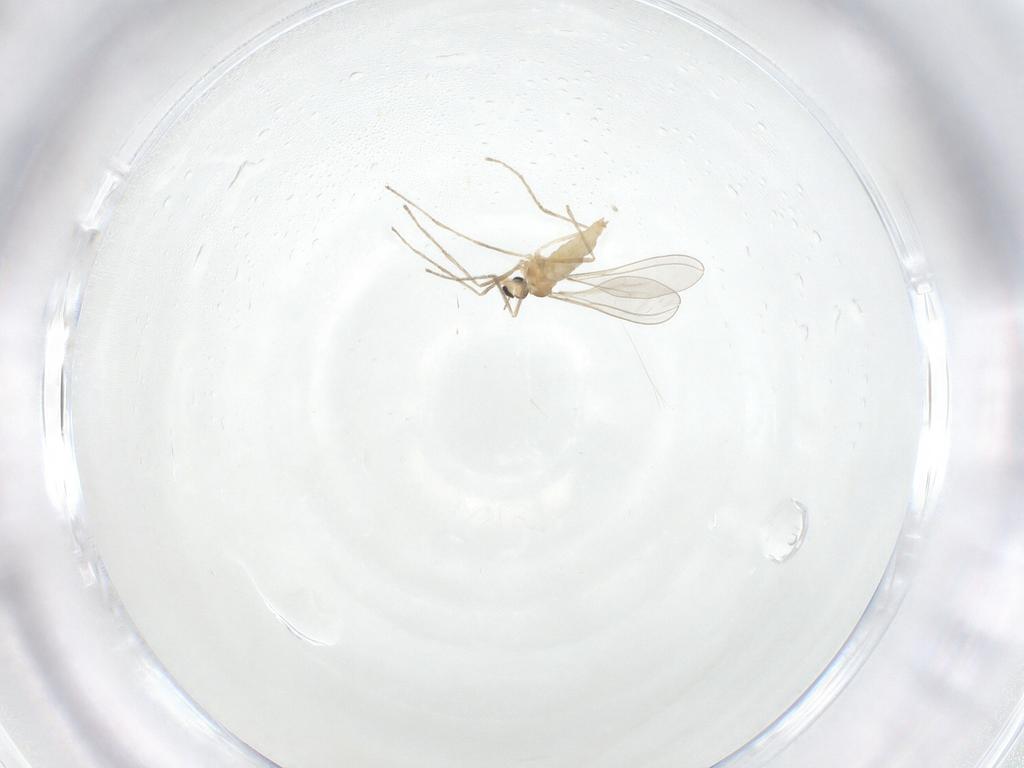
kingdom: Animalia
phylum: Arthropoda
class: Insecta
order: Diptera
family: Cecidomyiidae
